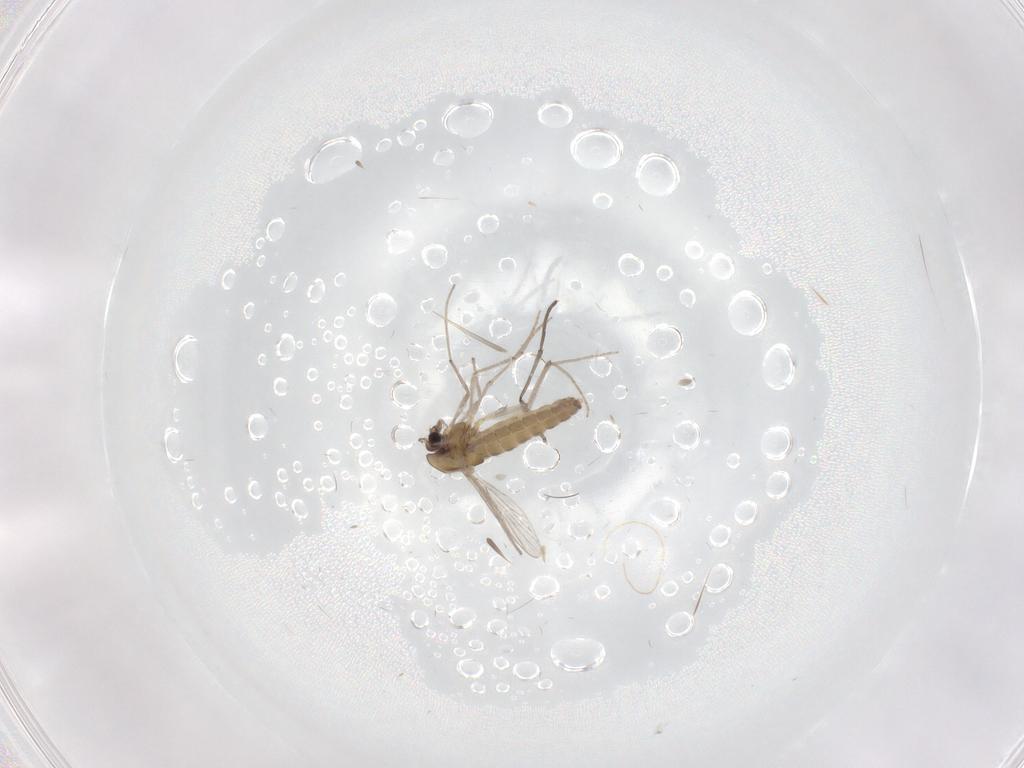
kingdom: Animalia
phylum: Arthropoda
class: Insecta
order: Diptera
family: Chironomidae
